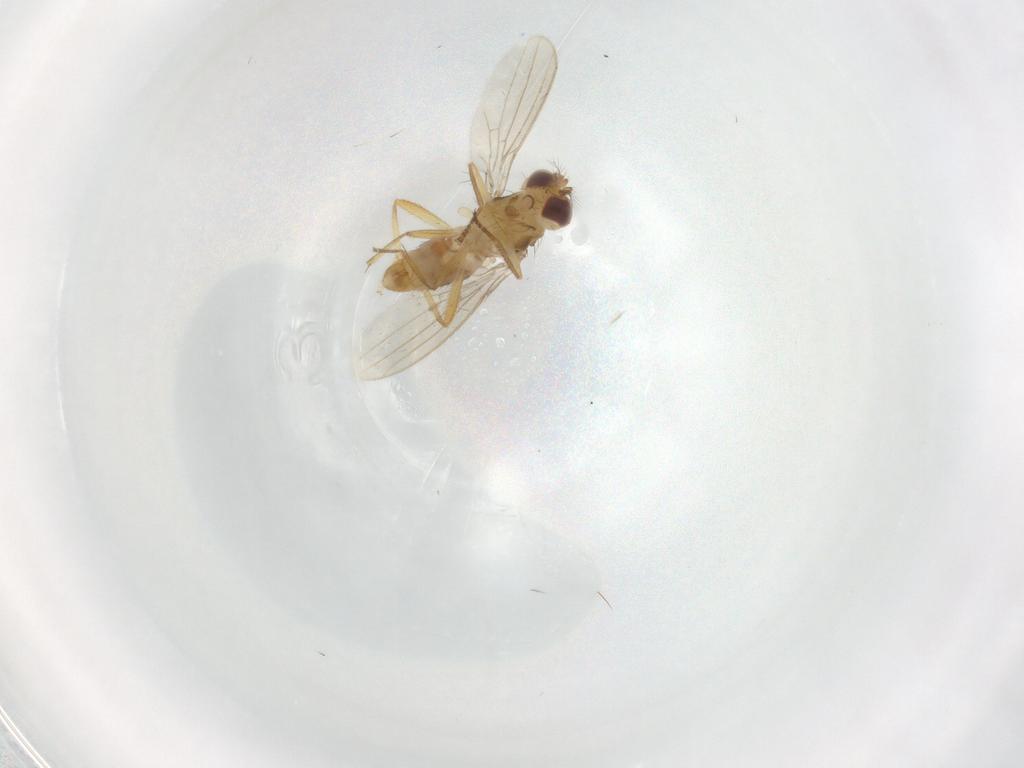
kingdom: Animalia
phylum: Arthropoda
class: Insecta
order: Diptera
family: Periscelididae
